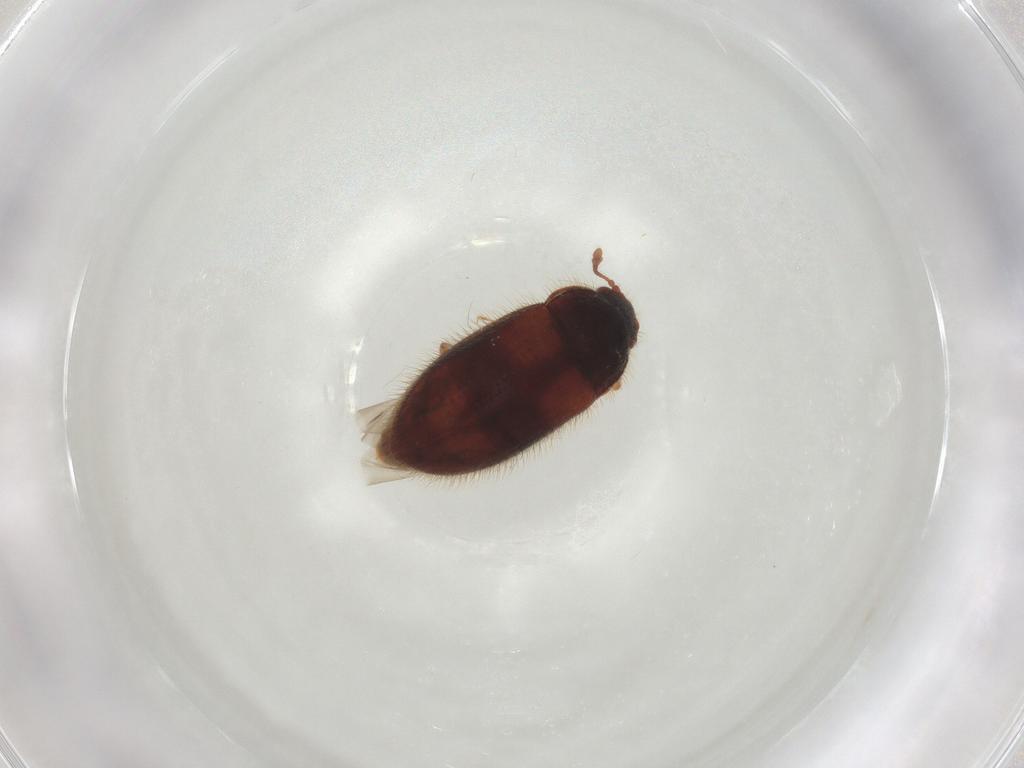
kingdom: Animalia
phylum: Arthropoda
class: Insecta
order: Coleoptera
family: Biphyllidae
